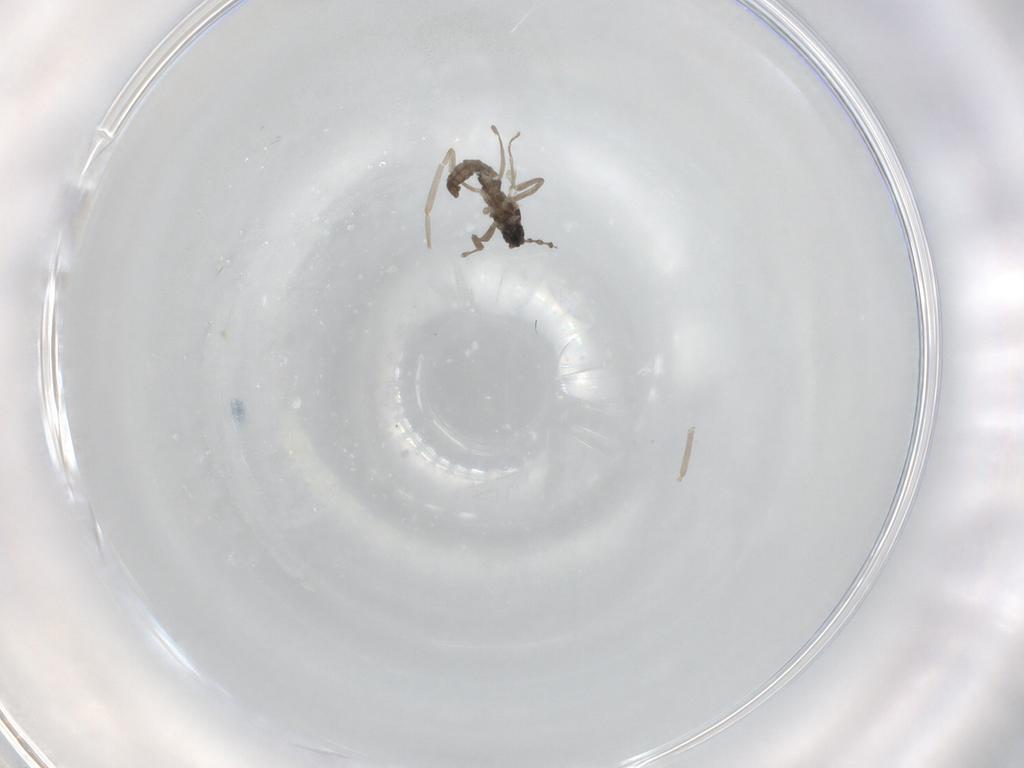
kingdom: Animalia
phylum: Arthropoda
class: Insecta
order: Diptera
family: Cecidomyiidae
